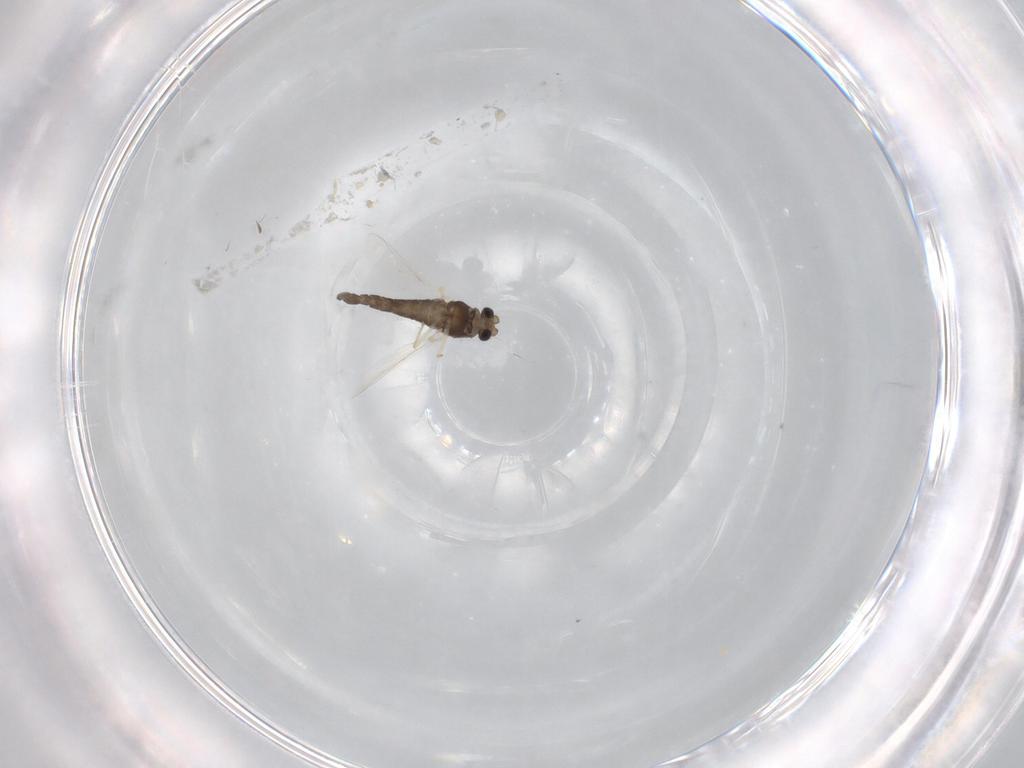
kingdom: Animalia
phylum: Arthropoda
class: Insecta
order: Diptera
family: Chironomidae
